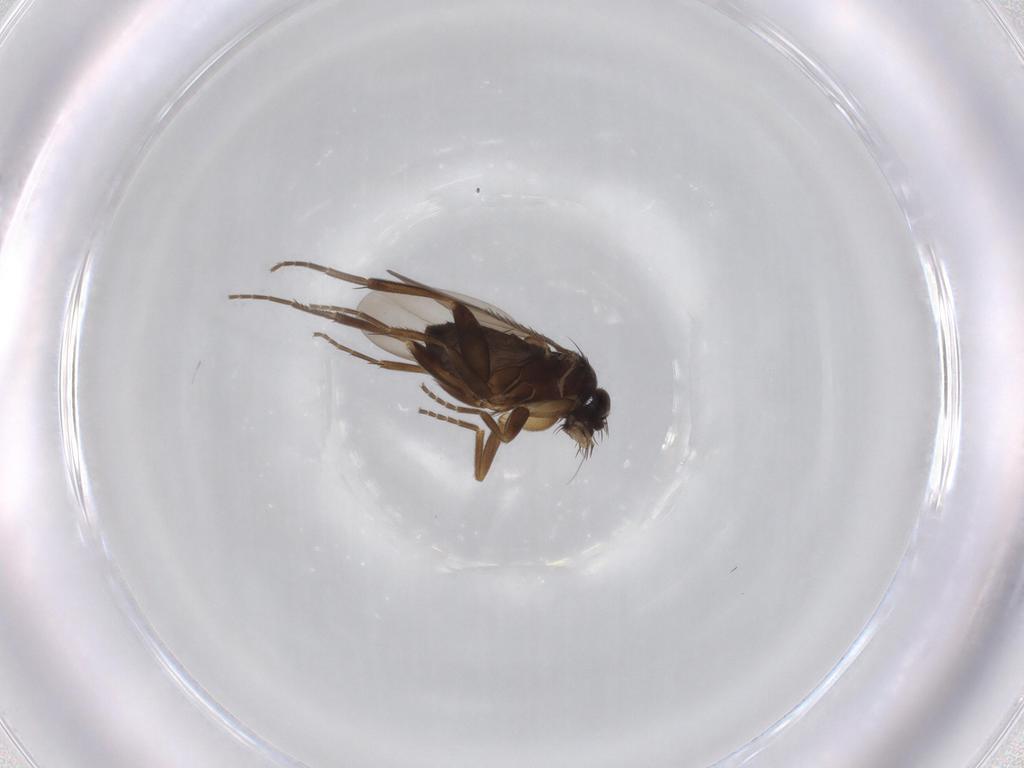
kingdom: Animalia
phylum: Arthropoda
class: Insecta
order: Diptera
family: Phoridae
